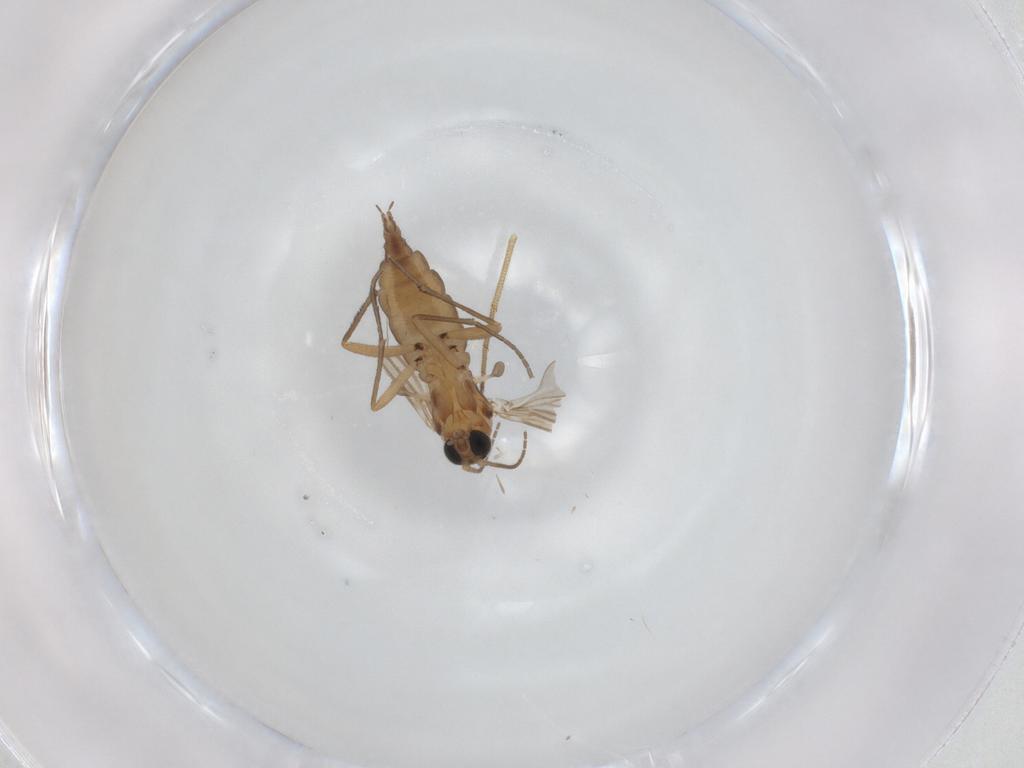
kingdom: Animalia
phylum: Arthropoda
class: Insecta
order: Diptera
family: Sciaridae
